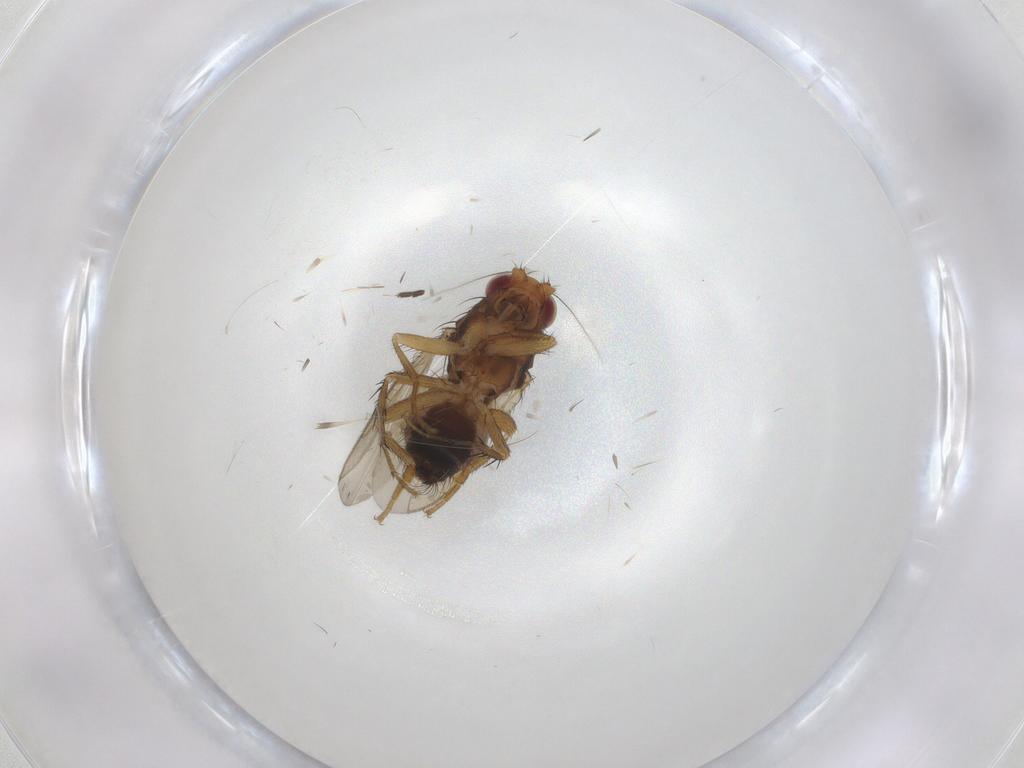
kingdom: Animalia
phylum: Arthropoda
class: Insecta
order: Diptera
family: Sphaeroceridae
